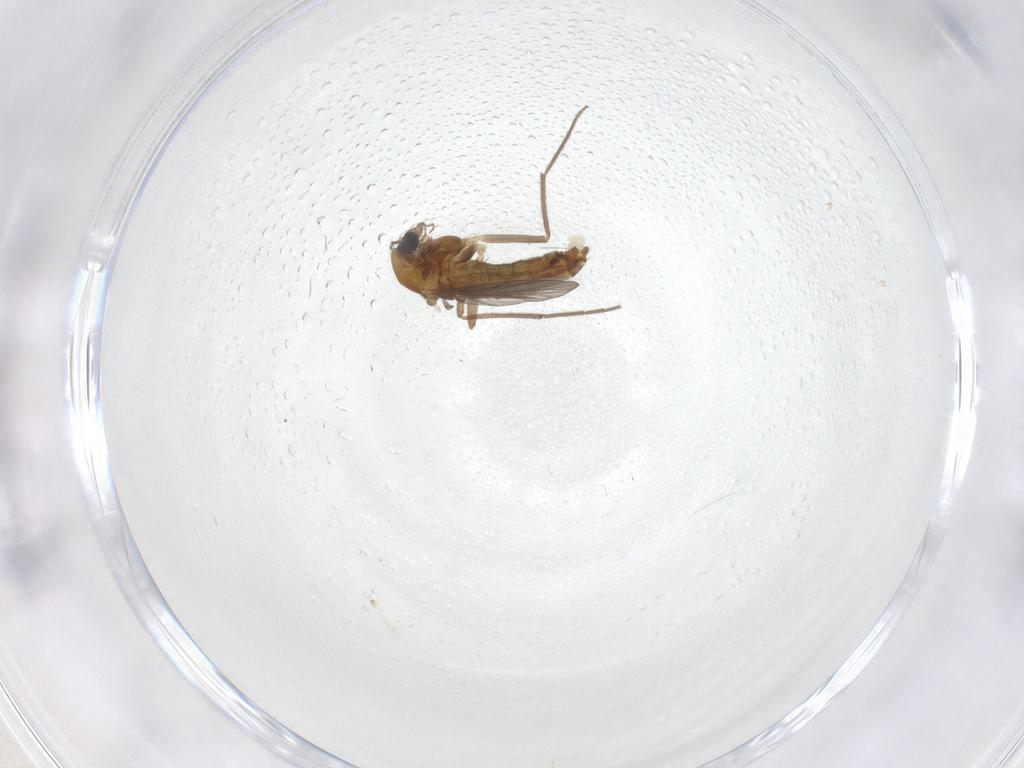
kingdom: Animalia
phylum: Arthropoda
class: Insecta
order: Diptera
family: Chironomidae
